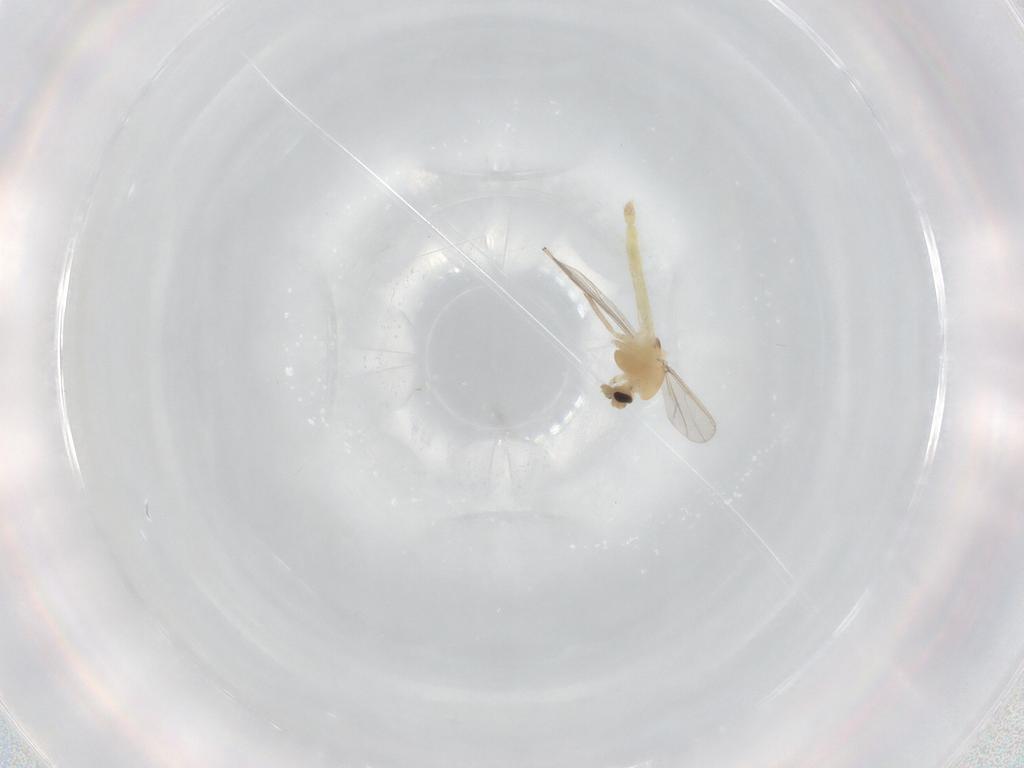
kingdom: Animalia
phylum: Arthropoda
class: Insecta
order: Diptera
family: Chironomidae
